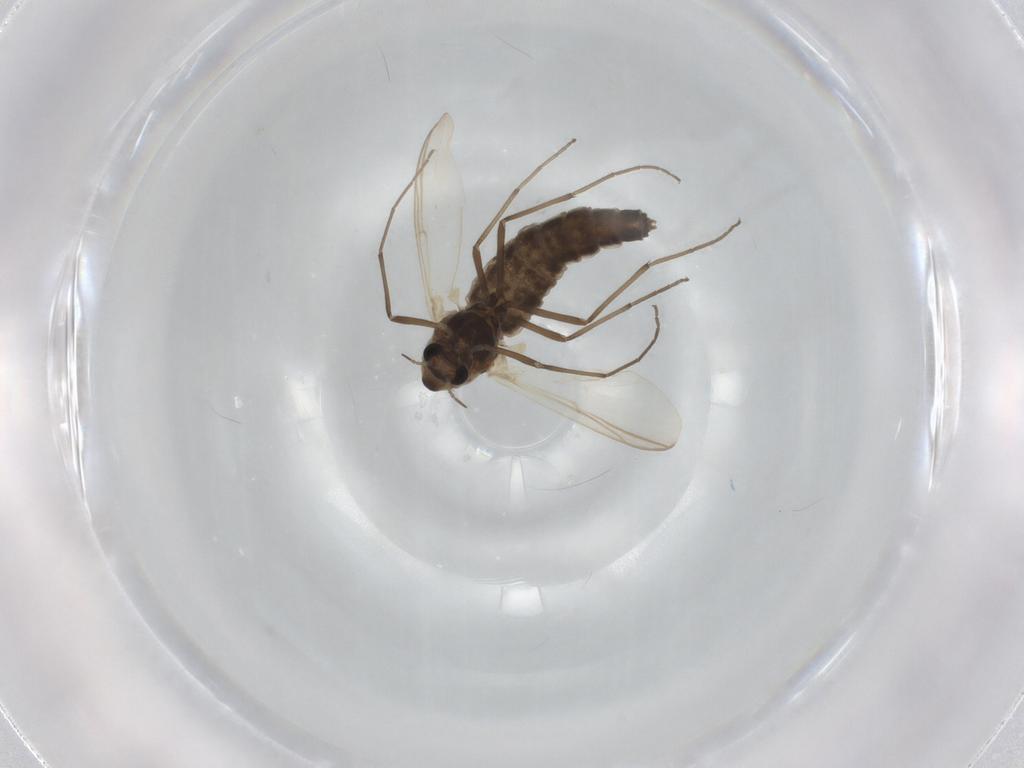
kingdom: Animalia
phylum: Arthropoda
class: Insecta
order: Diptera
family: Chironomidae
